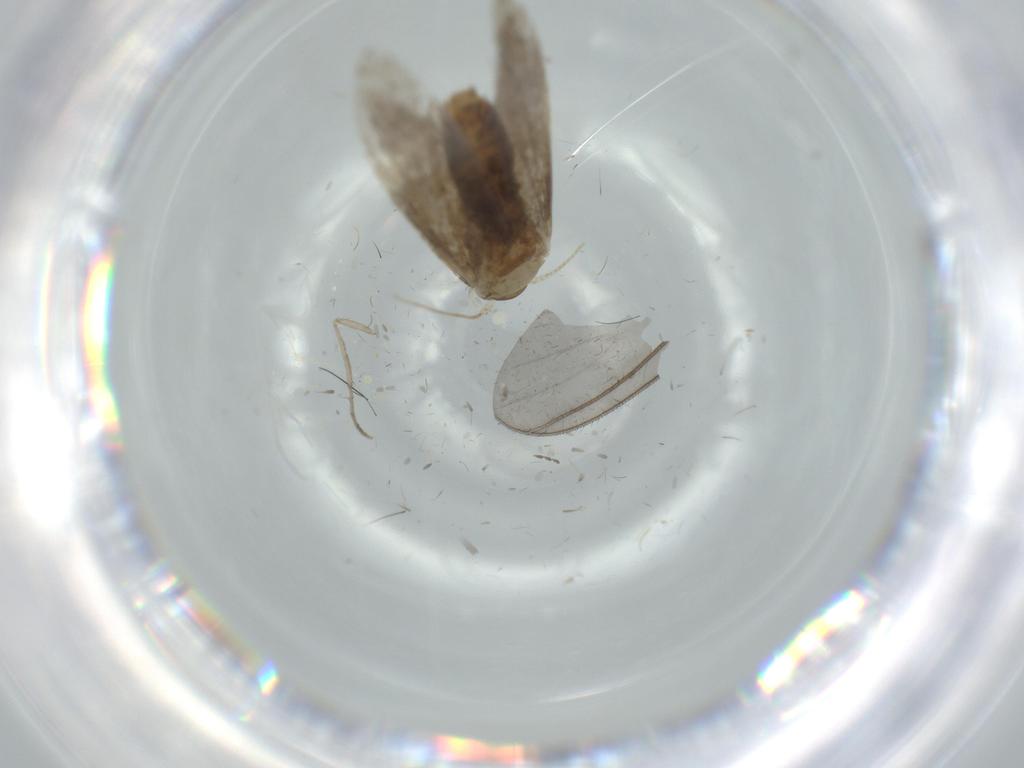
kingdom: Animalia
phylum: Arthropoda
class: Insecta
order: Lepidoptera
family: Tineidae
